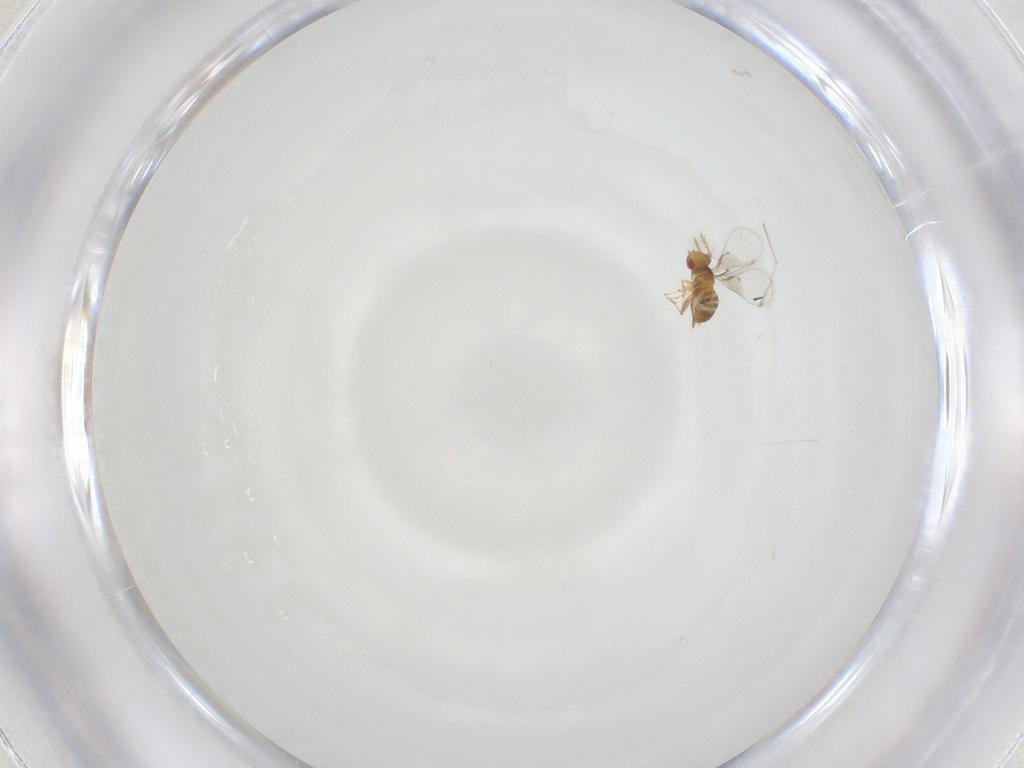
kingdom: Animalia
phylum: Arthropoda
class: Insecta
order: Hymenoptera
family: Trichogrammatidae
